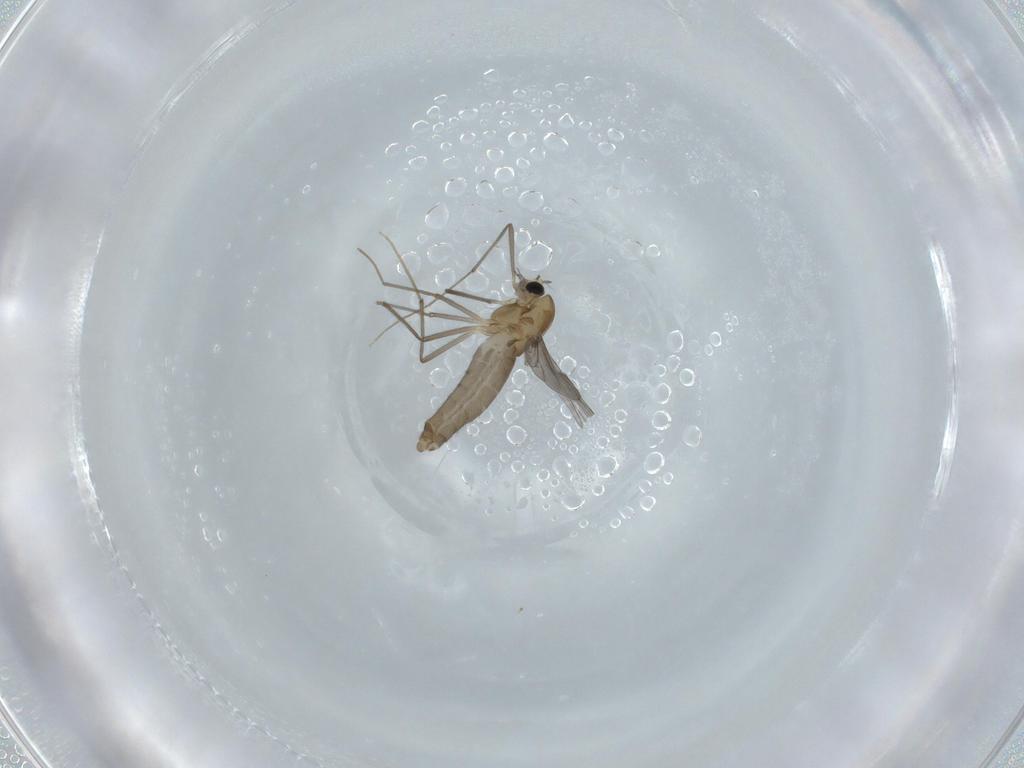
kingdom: Animalia
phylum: Arthropoda
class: Insecta
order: Diptera
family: Chironomidae
